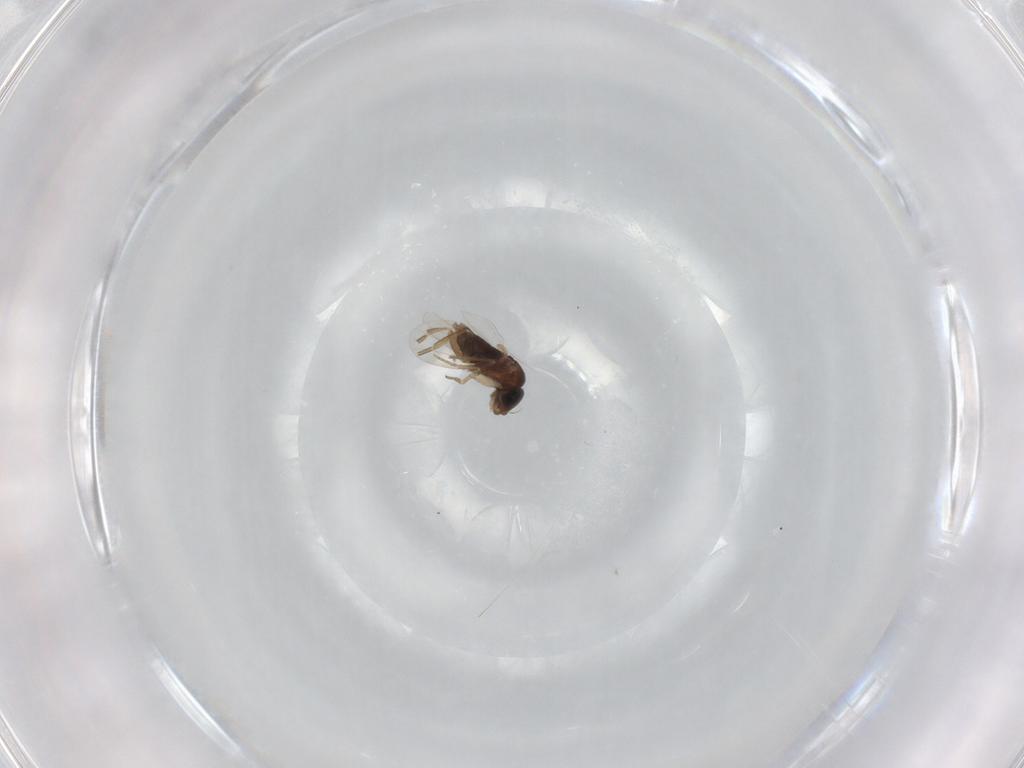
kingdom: Animalia
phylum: Arthropoda
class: Insecta
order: Diptera
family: Phoridae
